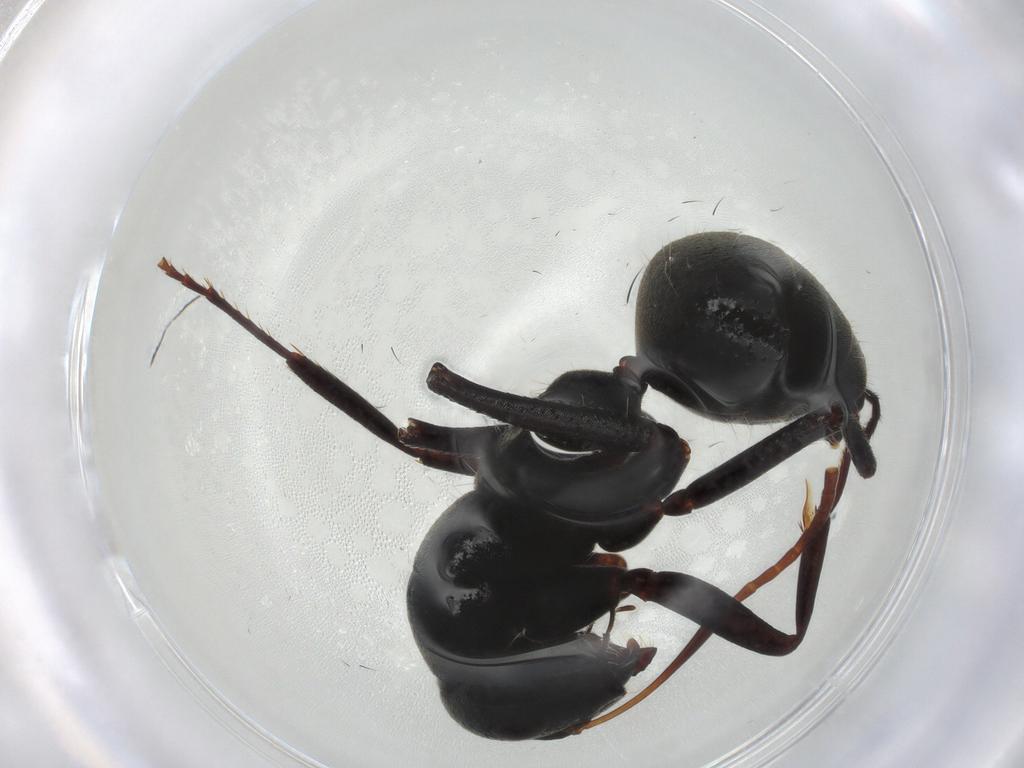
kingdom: Animalia
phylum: Arthropoda
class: Insecta
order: Hymenoptera
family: Formicidae
